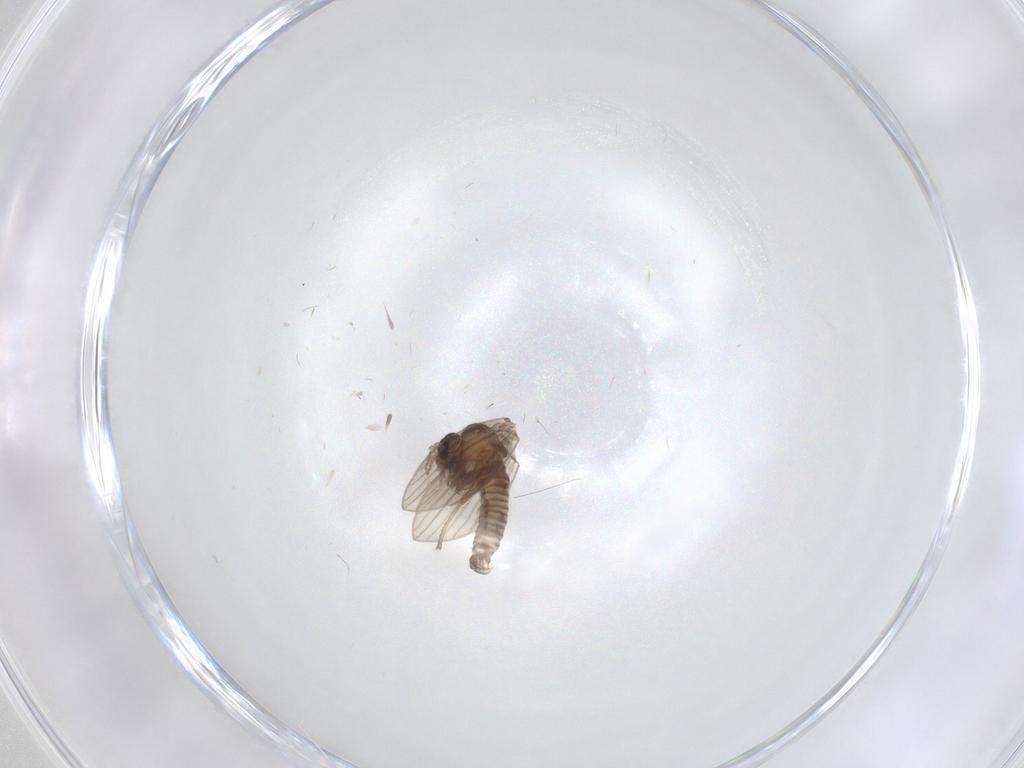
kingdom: Animalia
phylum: Arthropoda
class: Insecta
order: Diptera
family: Psychodidae
